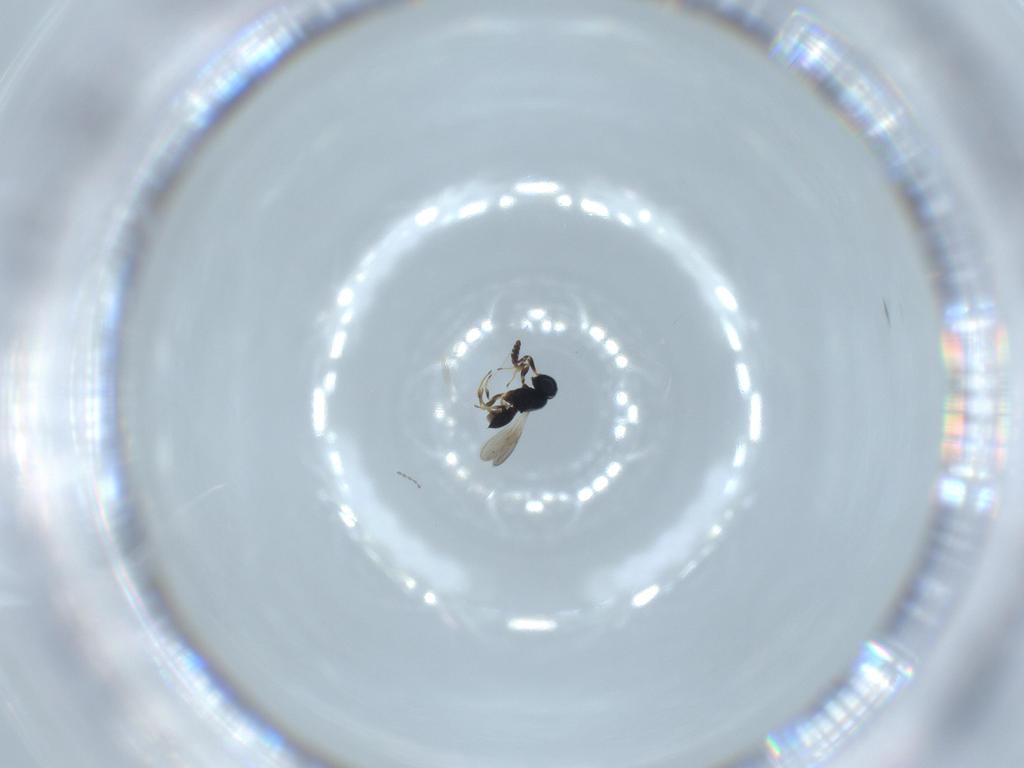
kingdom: Animalia
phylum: Arthropoda
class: Insecta
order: Hymenoptera
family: Scelionidae
